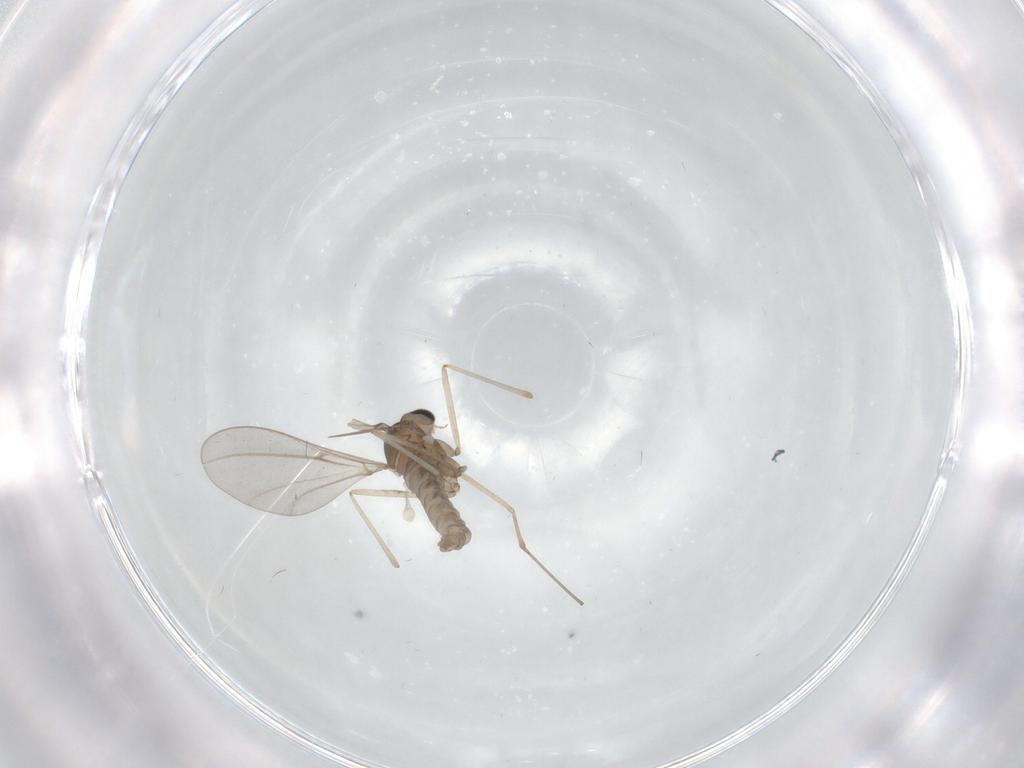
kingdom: Animalia
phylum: Arthropoda
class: Insecta
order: Diptera
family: Cecidomyiidae
